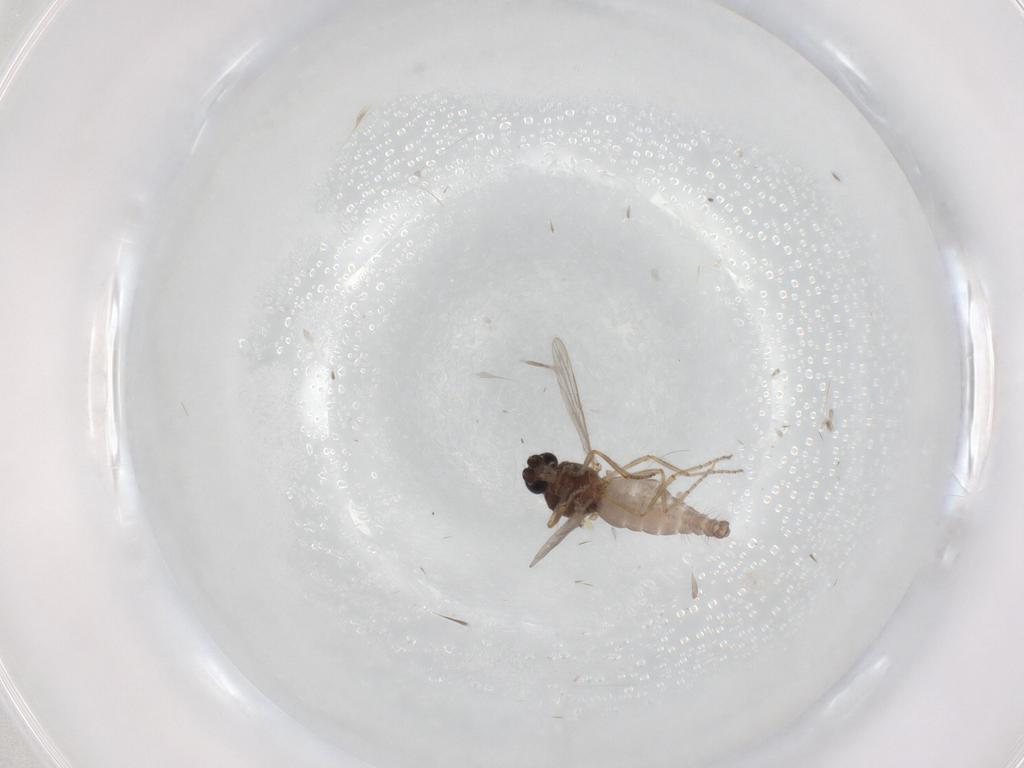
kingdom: Animalia
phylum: Arthropoda
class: Insecta
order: Diptera
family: Ceratopogonidae
